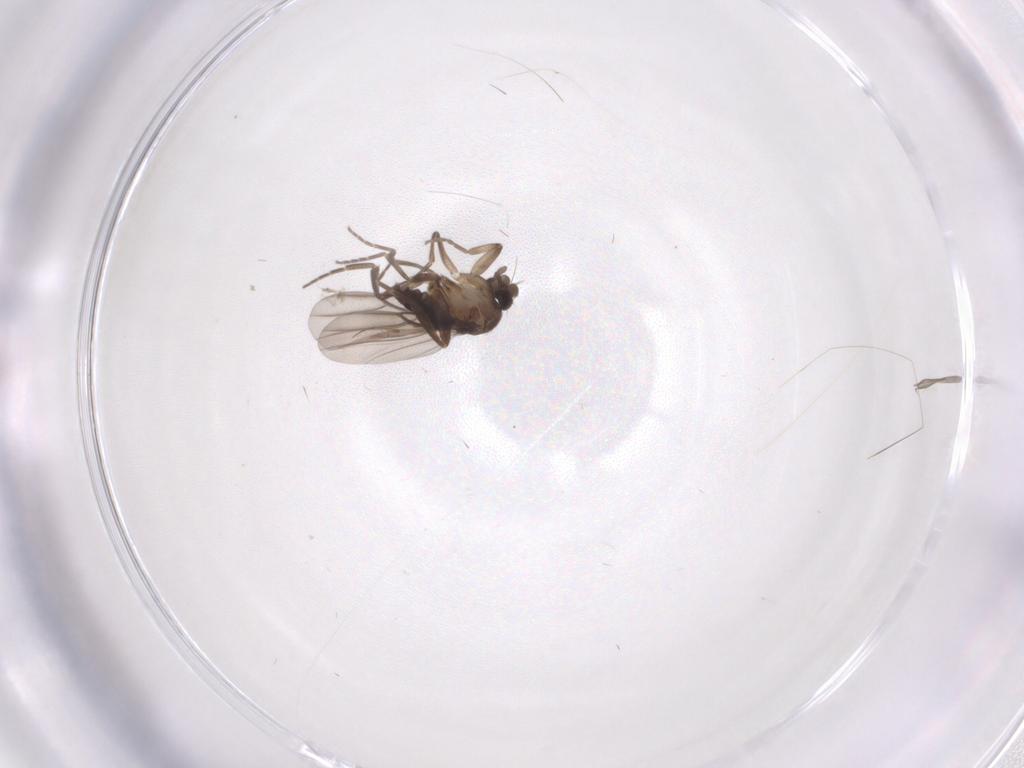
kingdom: Animalia
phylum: Arthropoda
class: Insecta
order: Diptera
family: Phoridae
